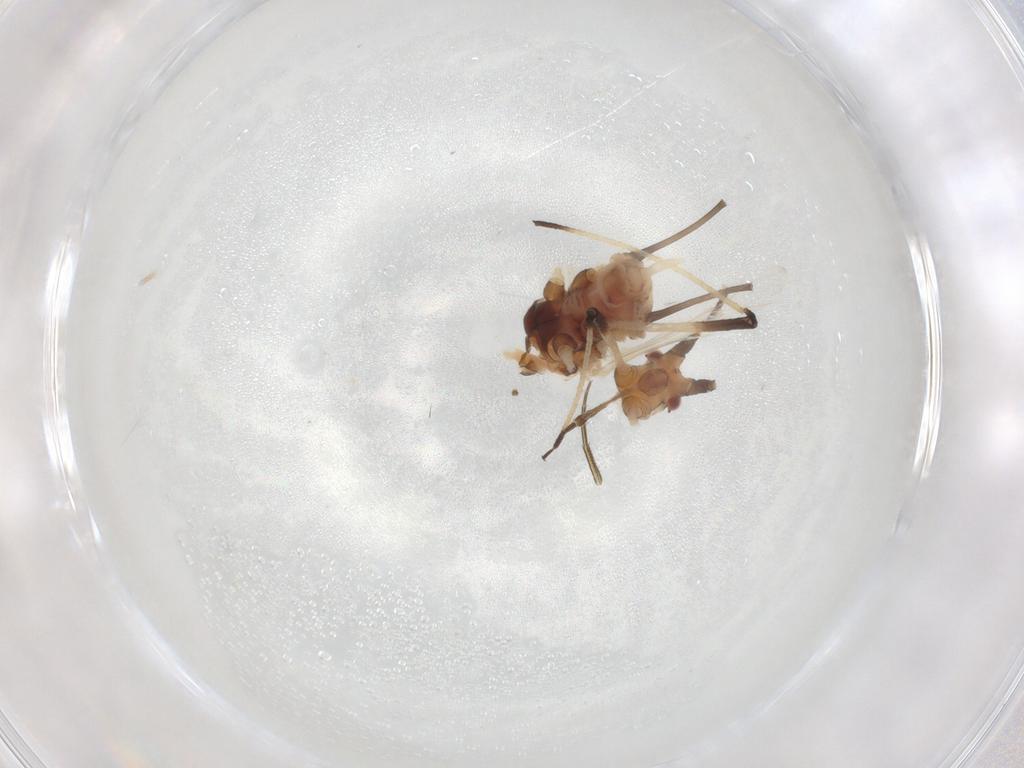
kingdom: Animalia
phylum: Arthropoda
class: Insecta
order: Hemiptera
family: Aphididae
